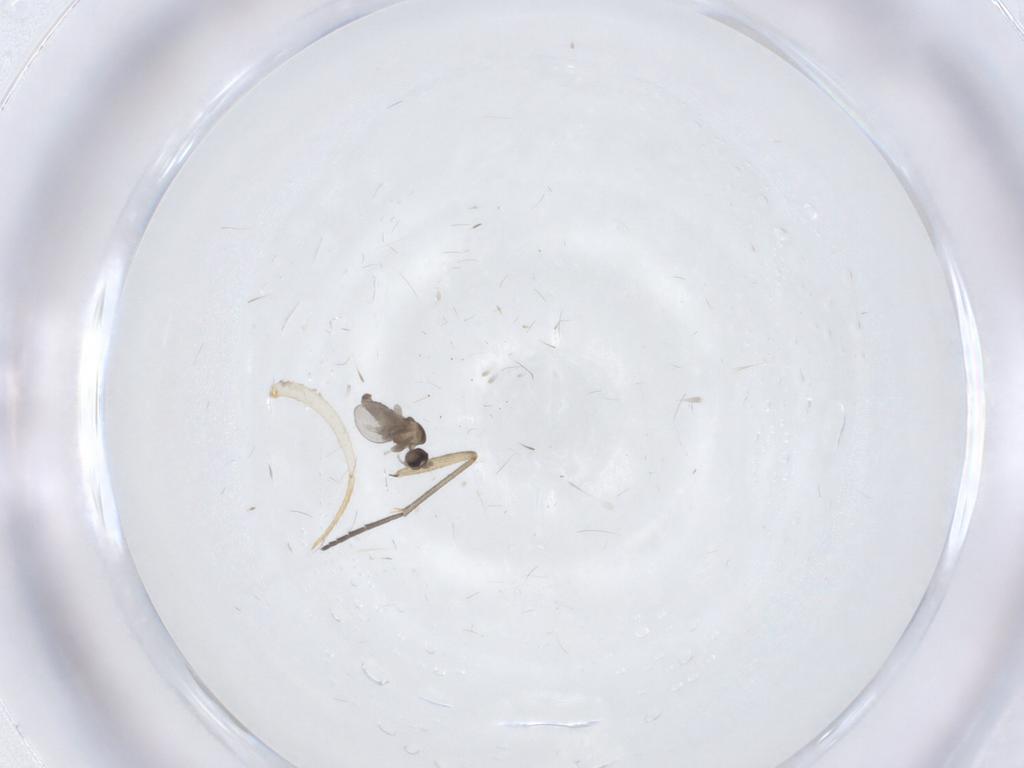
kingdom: Animalia
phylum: Arthropoda
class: Insecta
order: Diptera
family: Cecidomyiidae
